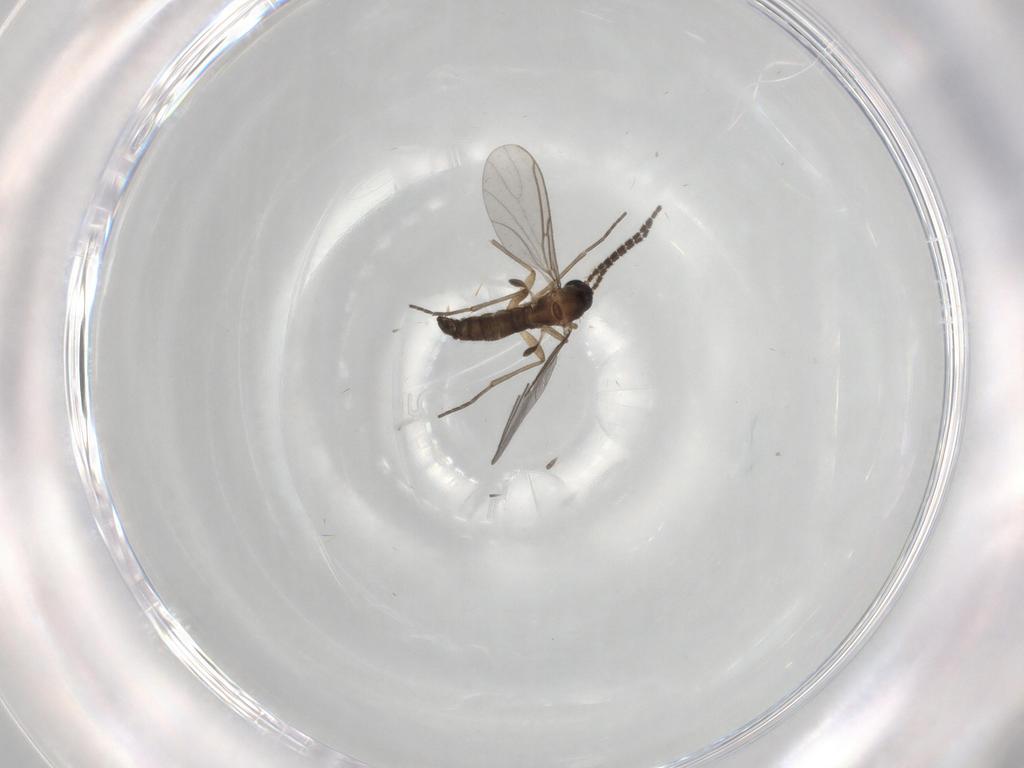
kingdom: Animalia
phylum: Arthropoda
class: Insecta
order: Diptera
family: Sciaridae
